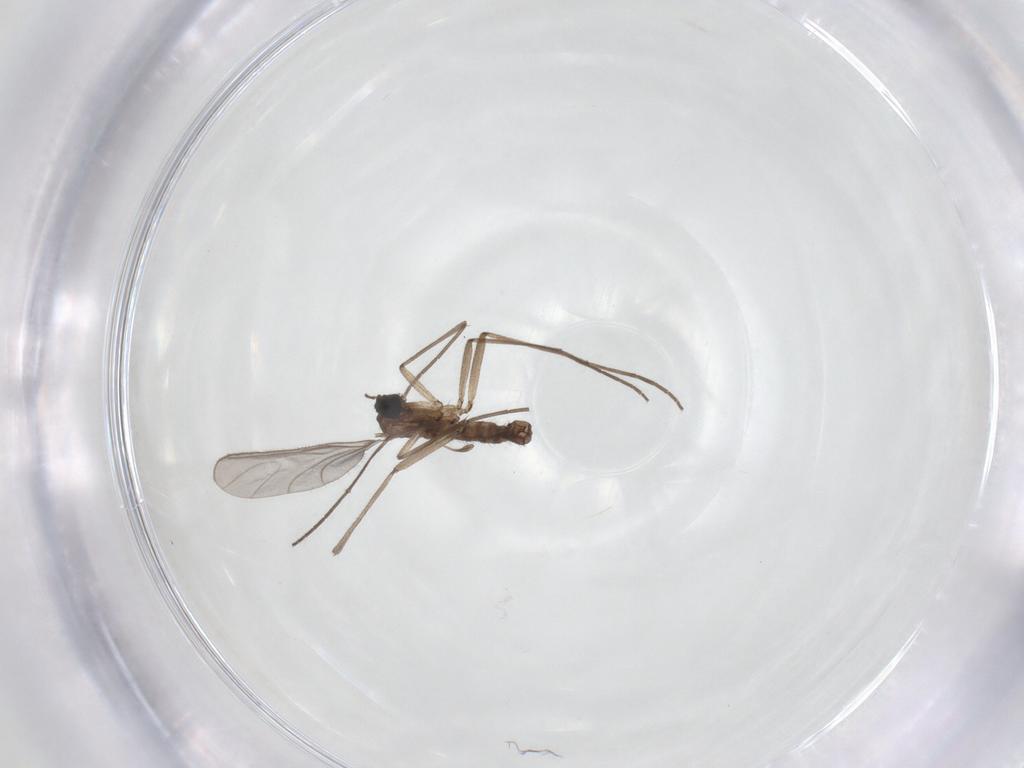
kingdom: Animalia
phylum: Arthropoda
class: Insecta
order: Diptera
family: Sciaridae
